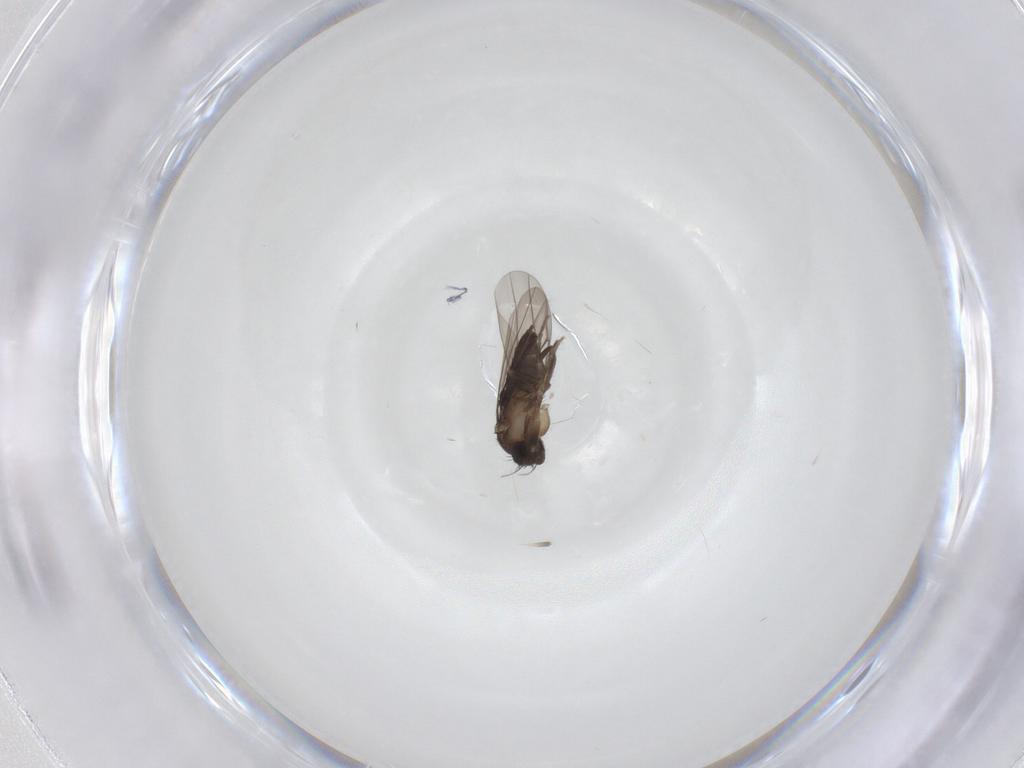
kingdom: Animalia
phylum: Arthropoda
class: Insecta
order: Diptera
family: Phoridae
